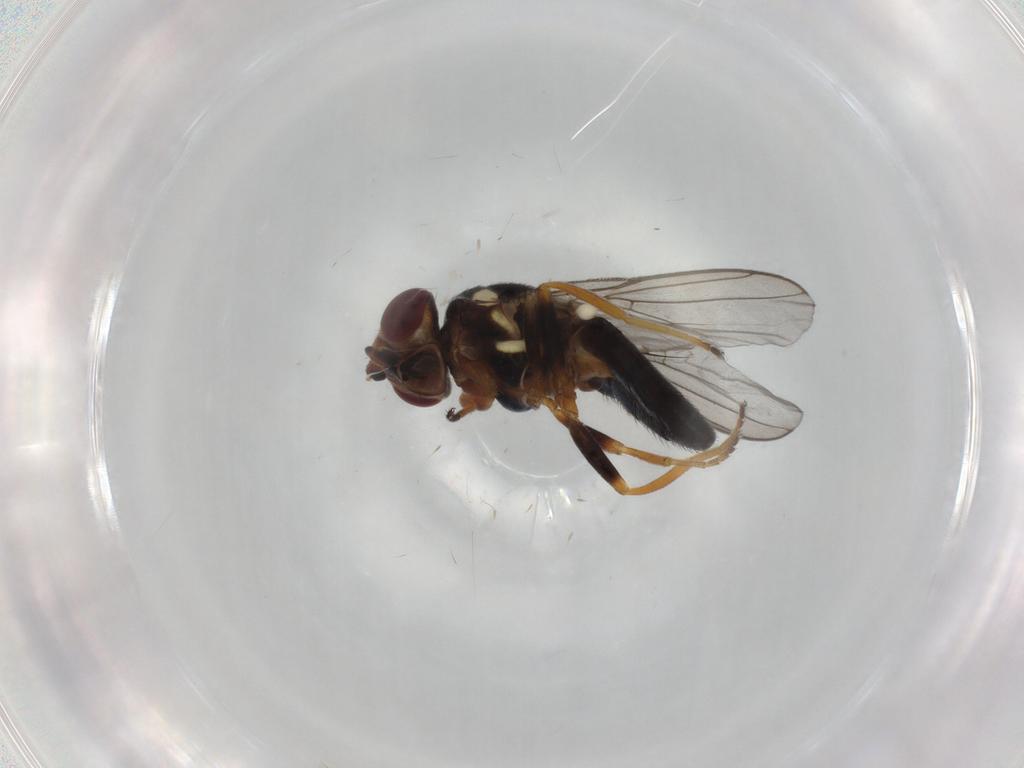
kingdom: Animalia
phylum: Arthropoda
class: Insecta
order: Diptera
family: Chloropidae
